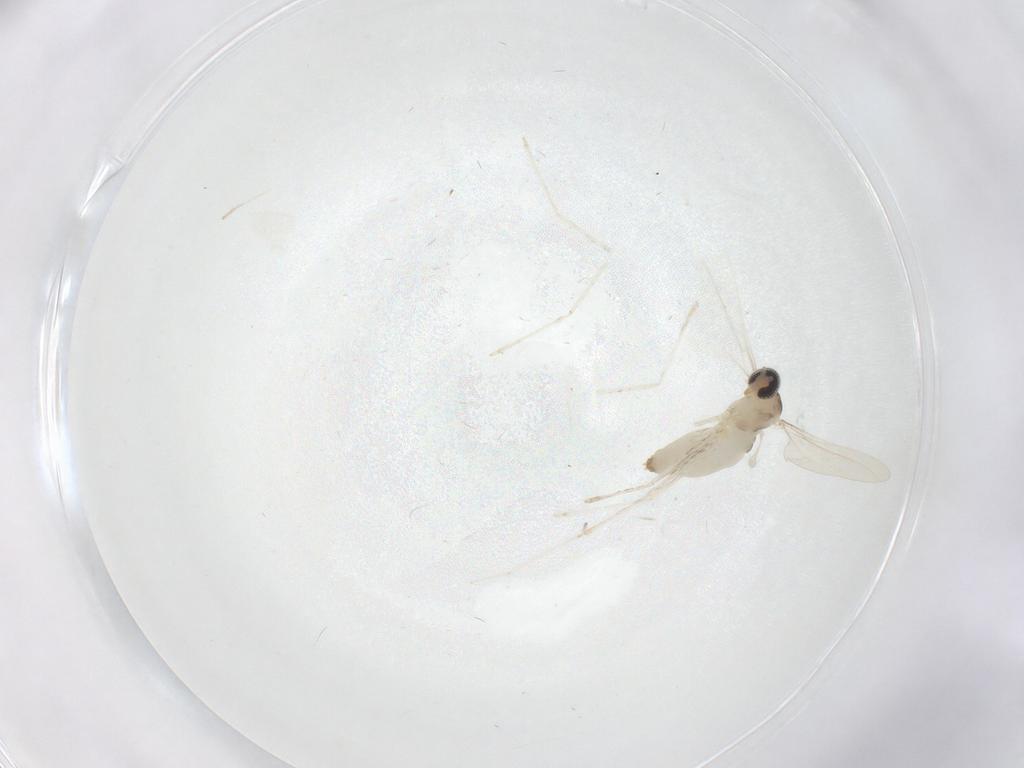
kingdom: Animalia
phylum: Arthropoda
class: Insecta
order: Diptera
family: Cecidomyiidae
